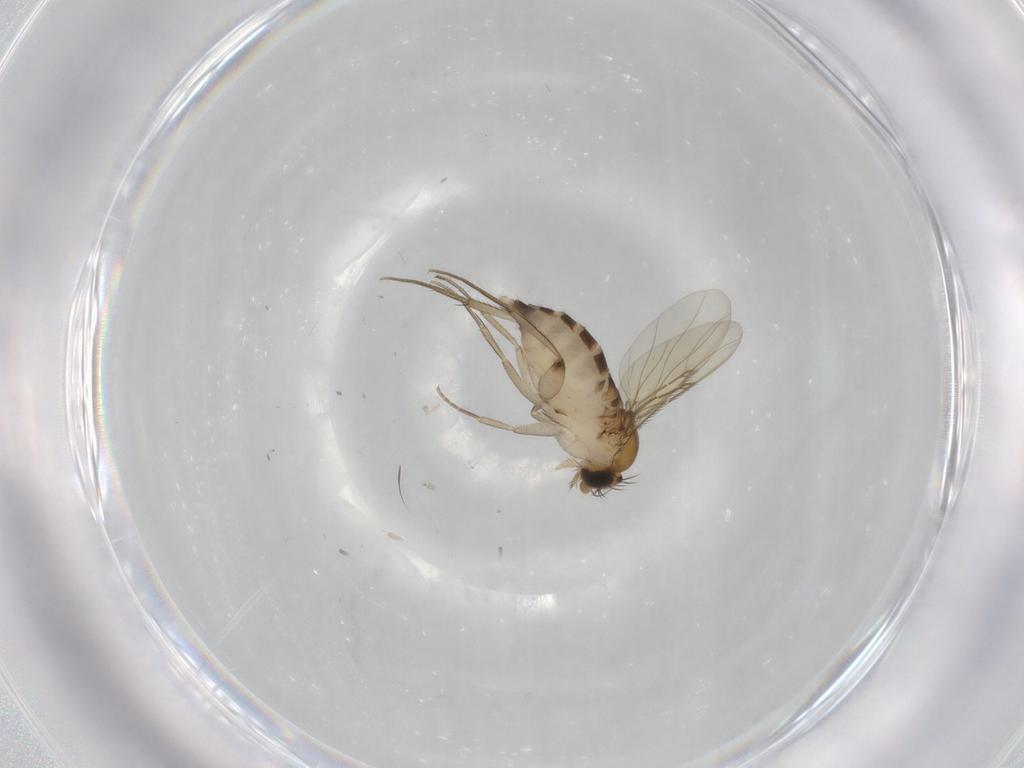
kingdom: Animalia
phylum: Arthropoda
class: Insecta
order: Diptera
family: Phoridae
